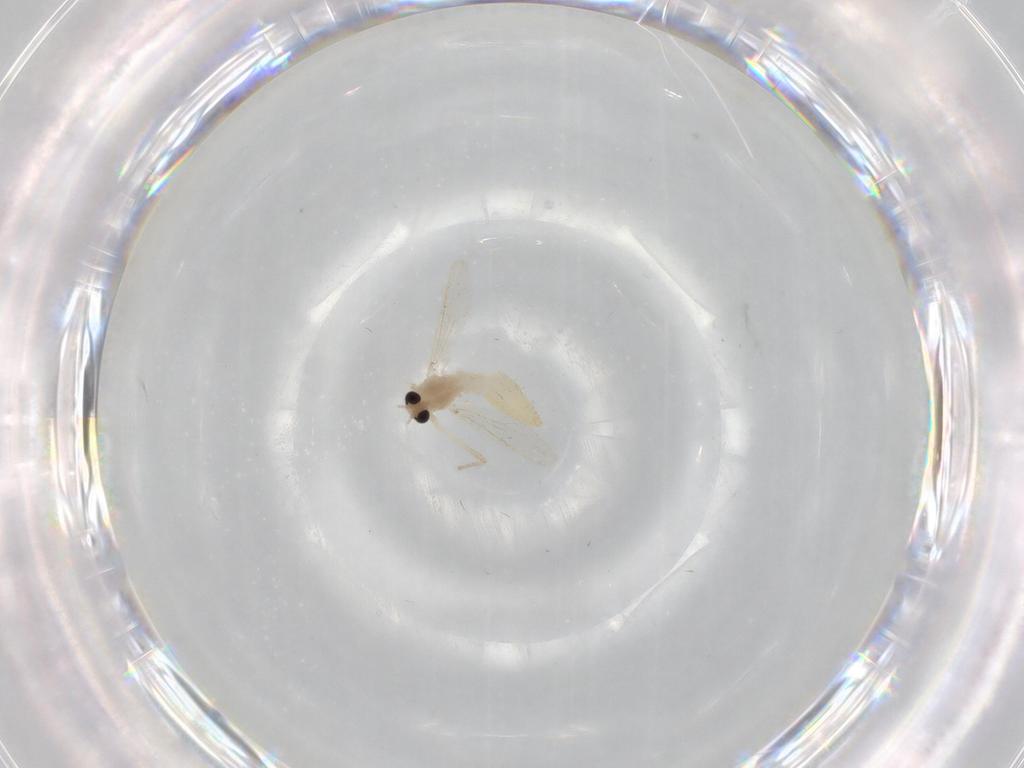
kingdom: Animalia
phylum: Arthropoda
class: Insecta
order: Diptera
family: Chironomidae
